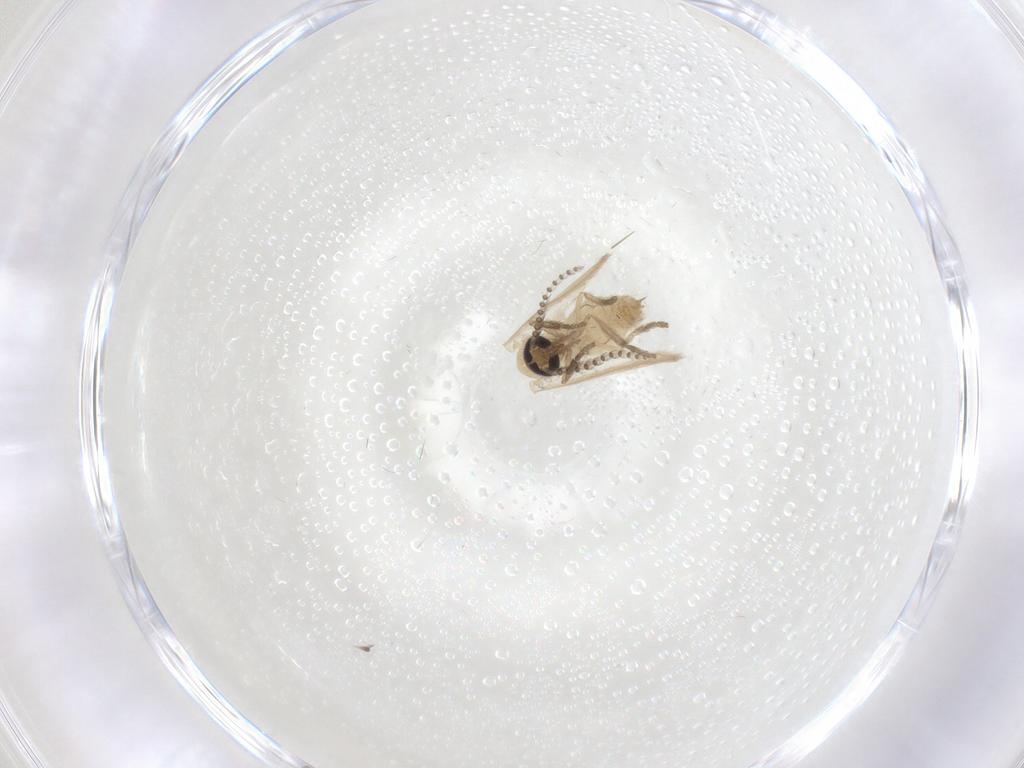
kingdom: Animalia
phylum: Arthropoda
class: Insecta
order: Diptera
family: Psychodidae
